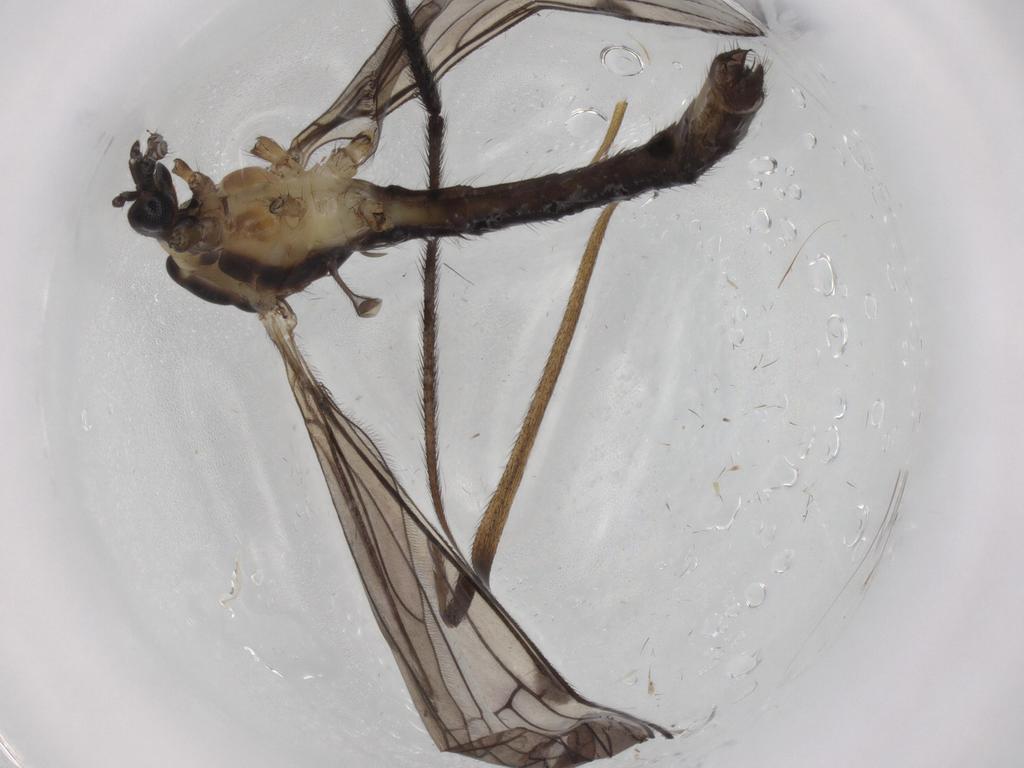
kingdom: Animalia
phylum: Arthropoda
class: Insecta
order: Diptera
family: Limoniidae
